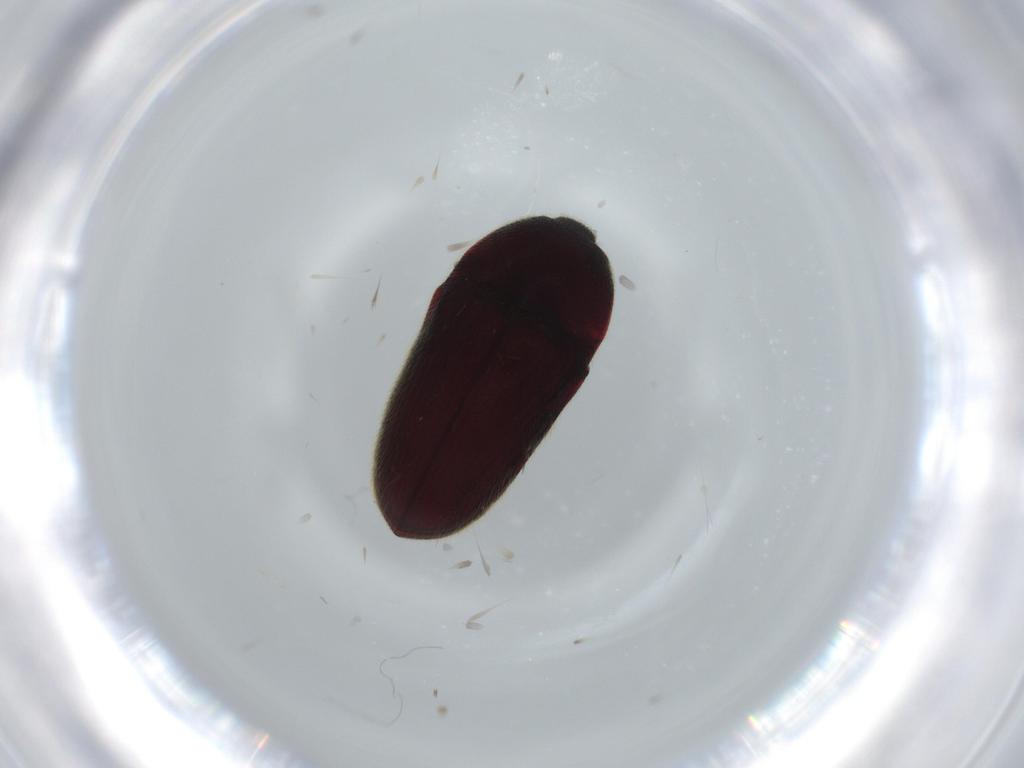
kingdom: Animalia
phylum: Arthropoda
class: Insecta
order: Coleoptera
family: Throscidae
